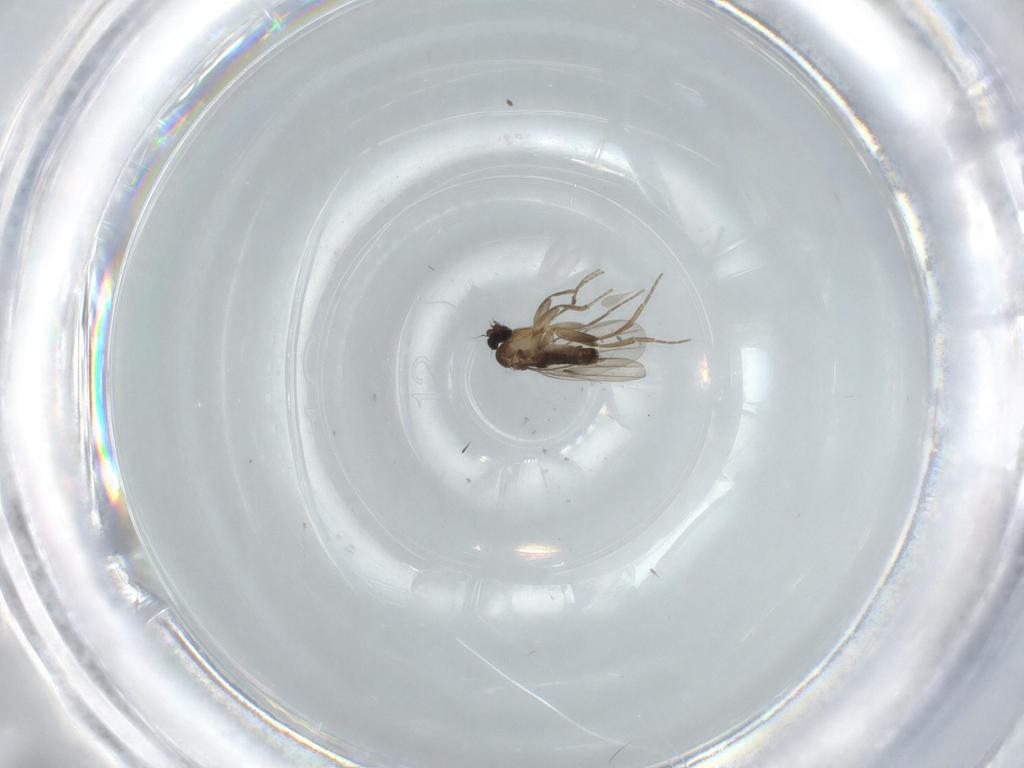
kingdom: Animalia
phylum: Arthropoda
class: Insecta
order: Diptera
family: Phoridae
